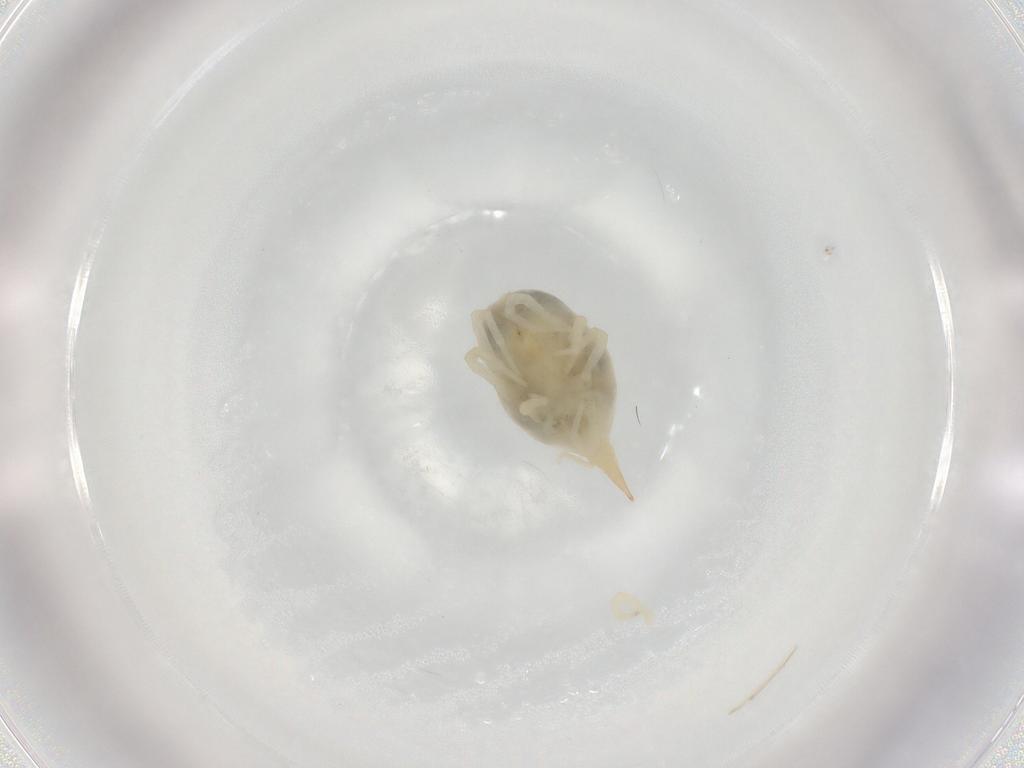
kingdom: Animalia
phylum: Arthropoda
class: Arachnida
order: Trombidiformes
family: Bdellidae
